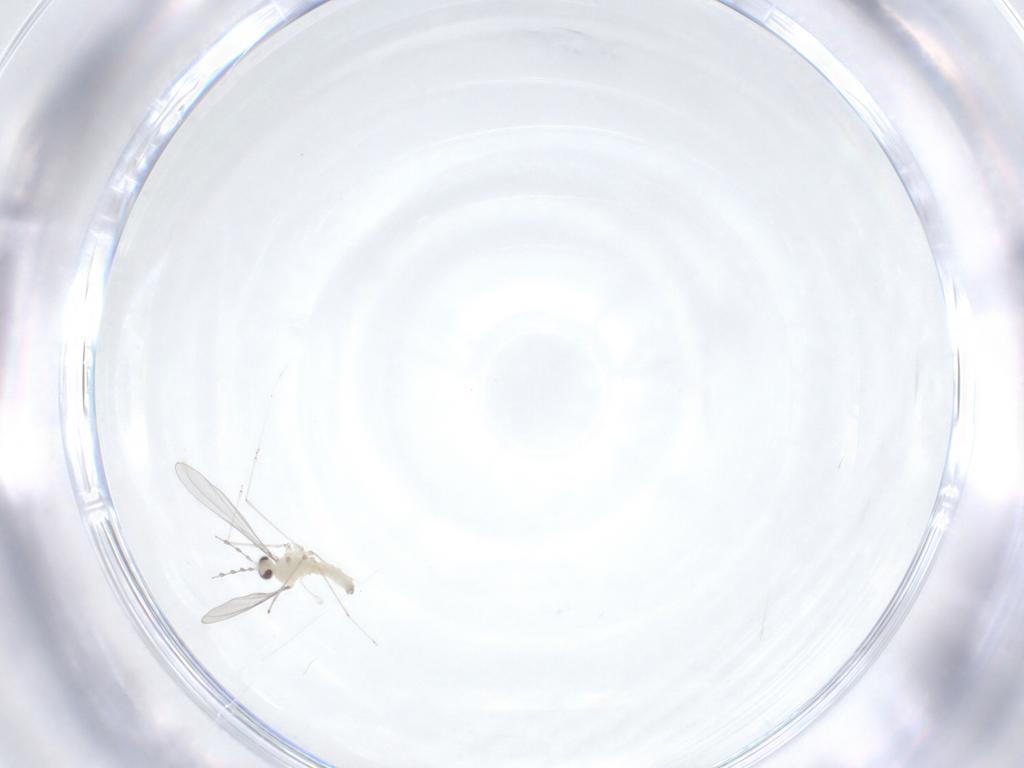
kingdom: Animalia
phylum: Arthropoda
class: Insecta
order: Diptera
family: Cecidomyiidae
